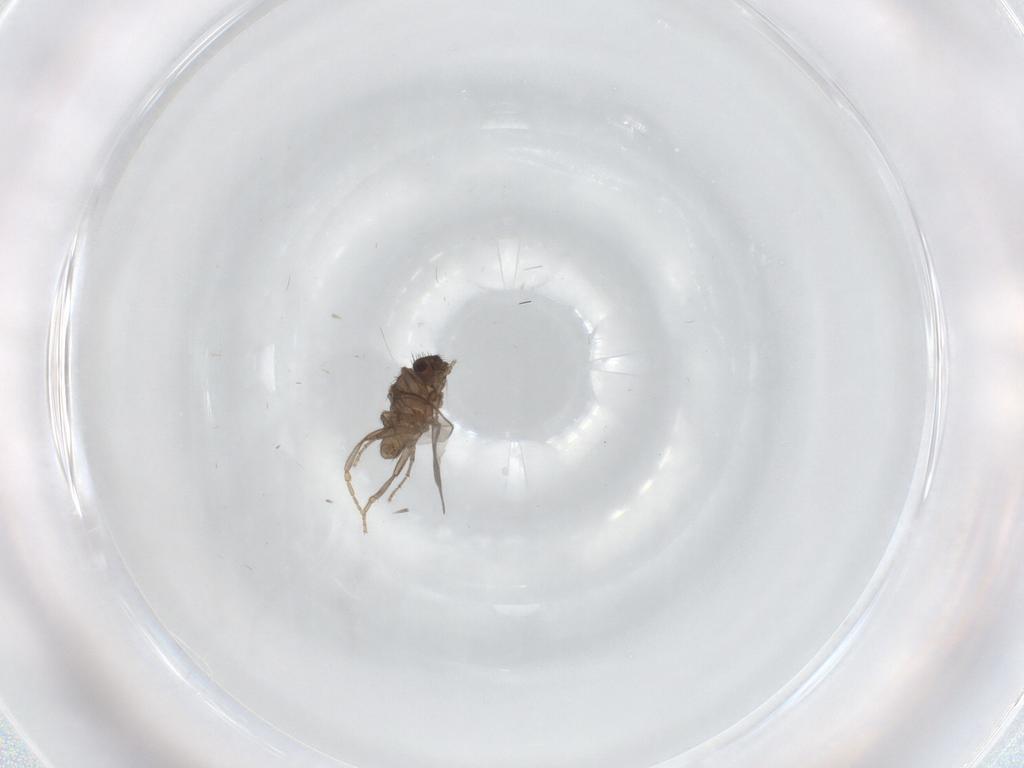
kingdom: Animalia
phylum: Arthropoda
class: Insecta
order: Diptera
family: Limoniidae
